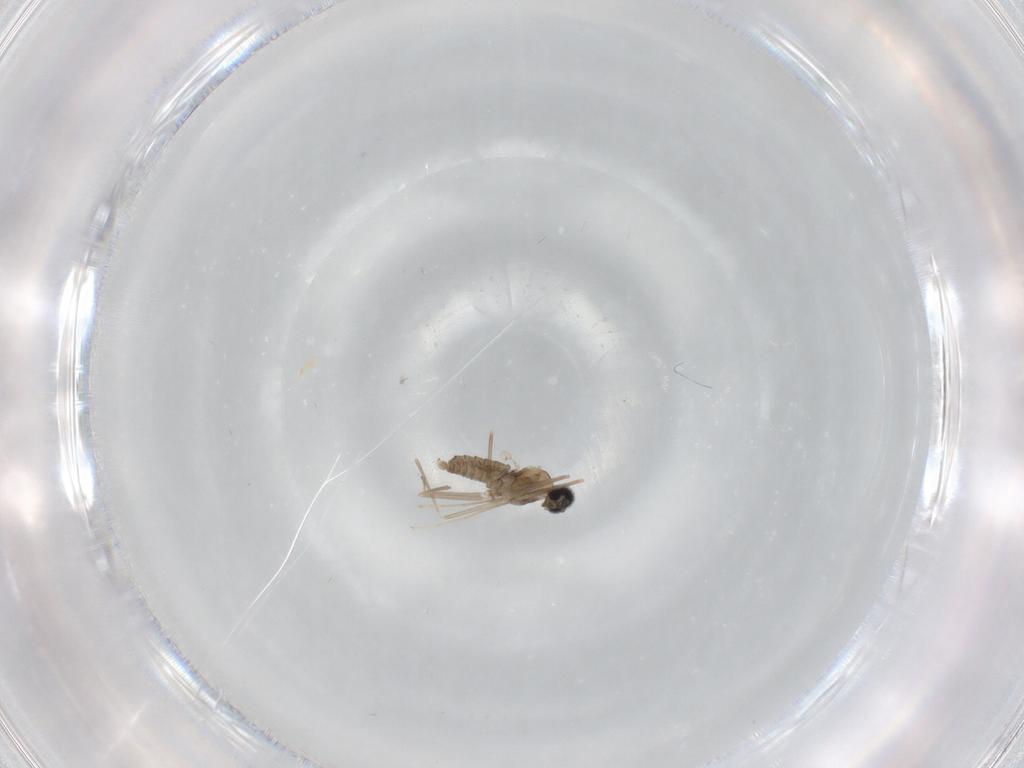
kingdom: Animalia
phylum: Arthropoda
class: Insecta
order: Diptera
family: Phoridae
